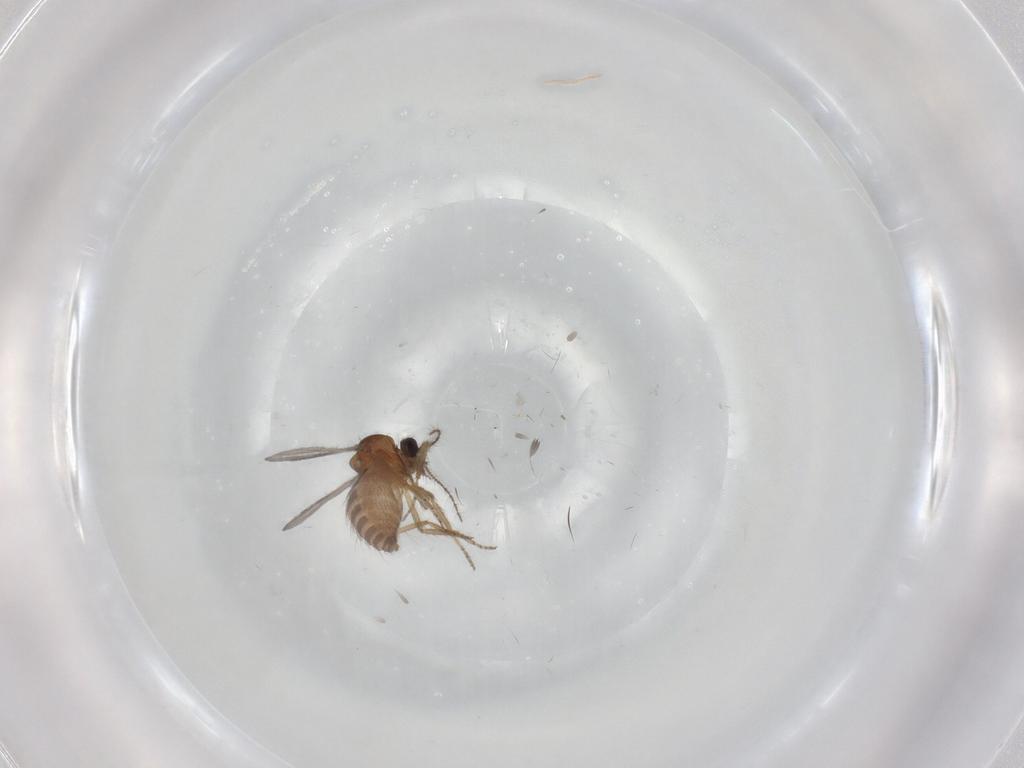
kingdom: Animalia
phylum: Arthropoda
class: Insecta
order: Diptera
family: Ceratopogonidae
